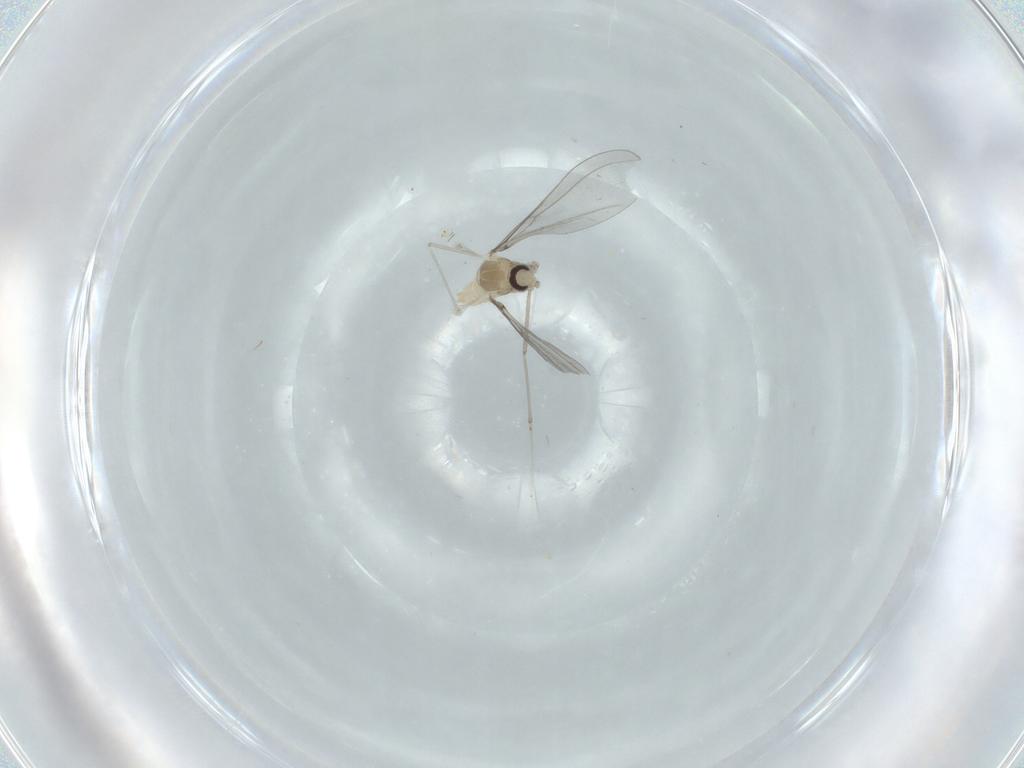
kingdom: Animalia
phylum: Arthropoda
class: Insecta
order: Diptera
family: Cecidomyiidae
